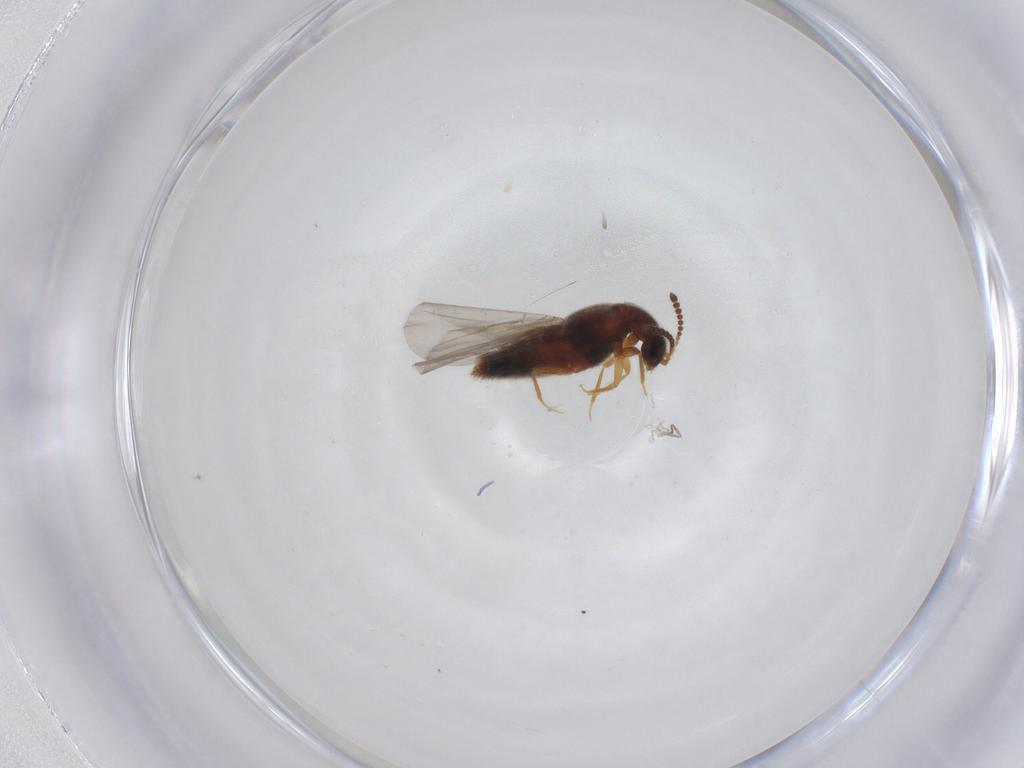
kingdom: Animalia
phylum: Arthropoda
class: Insecta
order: Coleoptera
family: Staphylinidae
